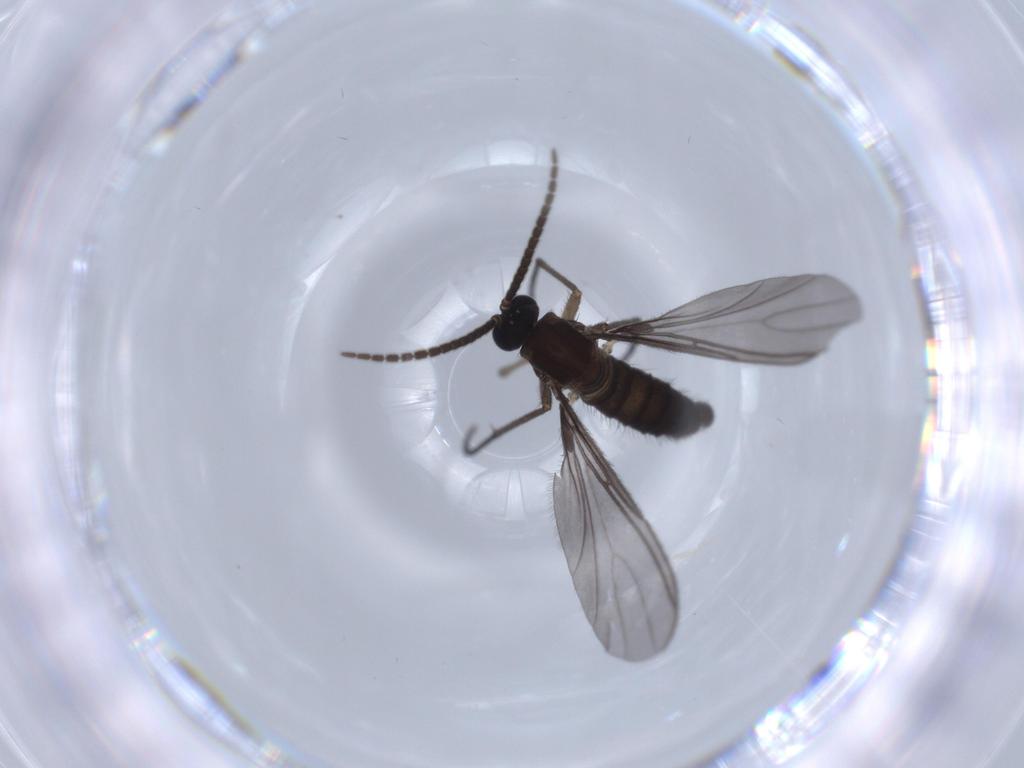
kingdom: Animalia
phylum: Arthropoda
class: Insecta
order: Diptera
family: Sciaridae
